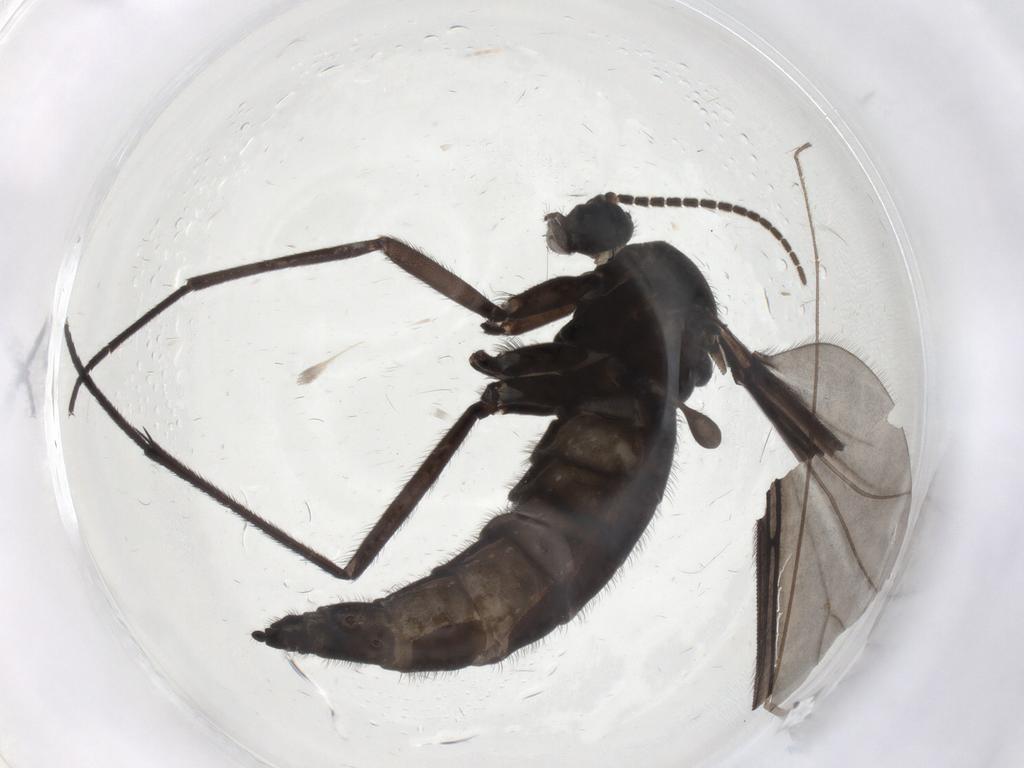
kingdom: Animalia
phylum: Arthropoda
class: Insecta
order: Diptera
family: Sciaridae
